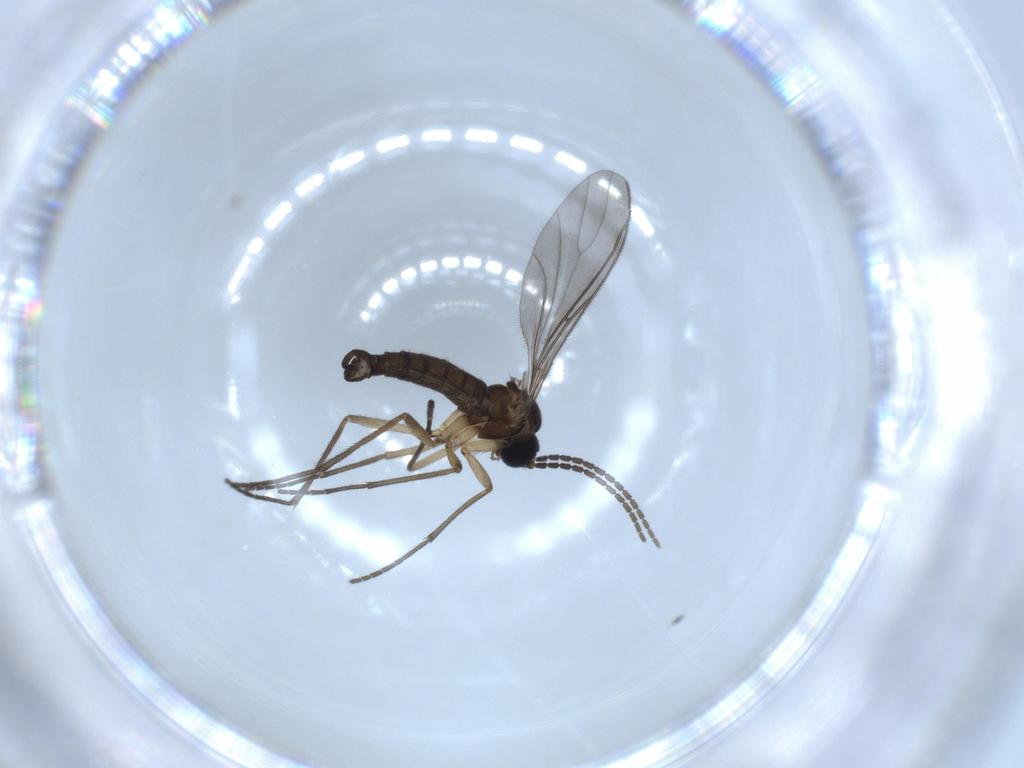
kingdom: Animalia
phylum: Arthropoda
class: Insecta
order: Diptera
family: Sciaridae
